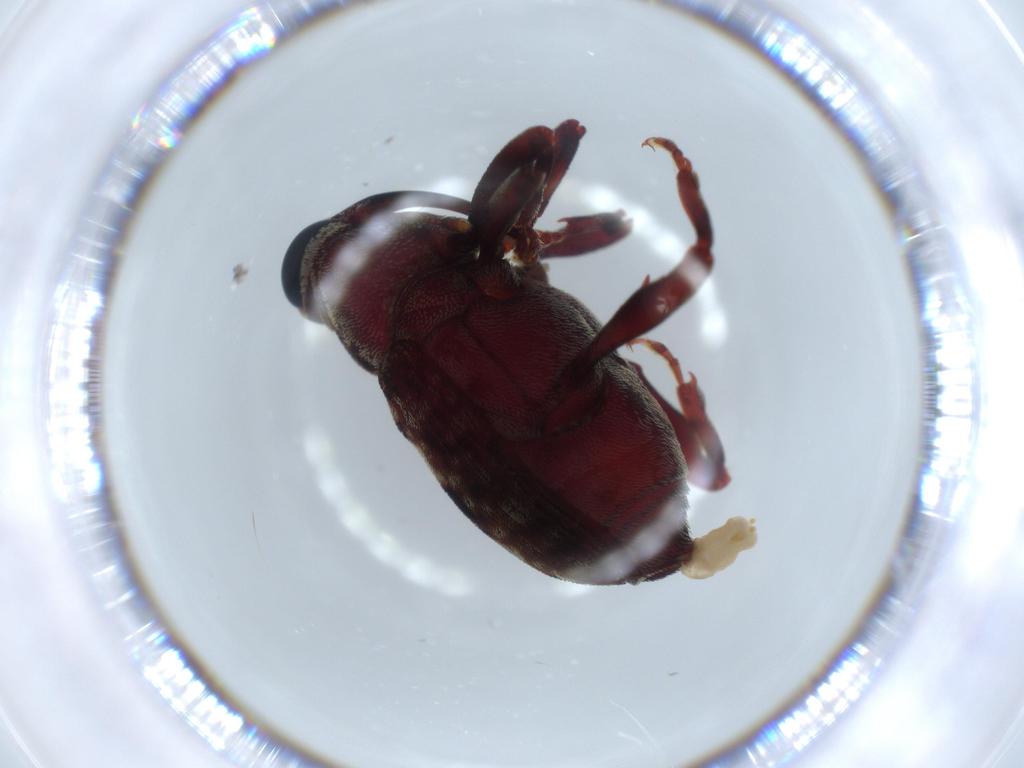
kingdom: Animalia
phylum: Arthropoda
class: Insecta
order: Coleoptera
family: Curculionidae
